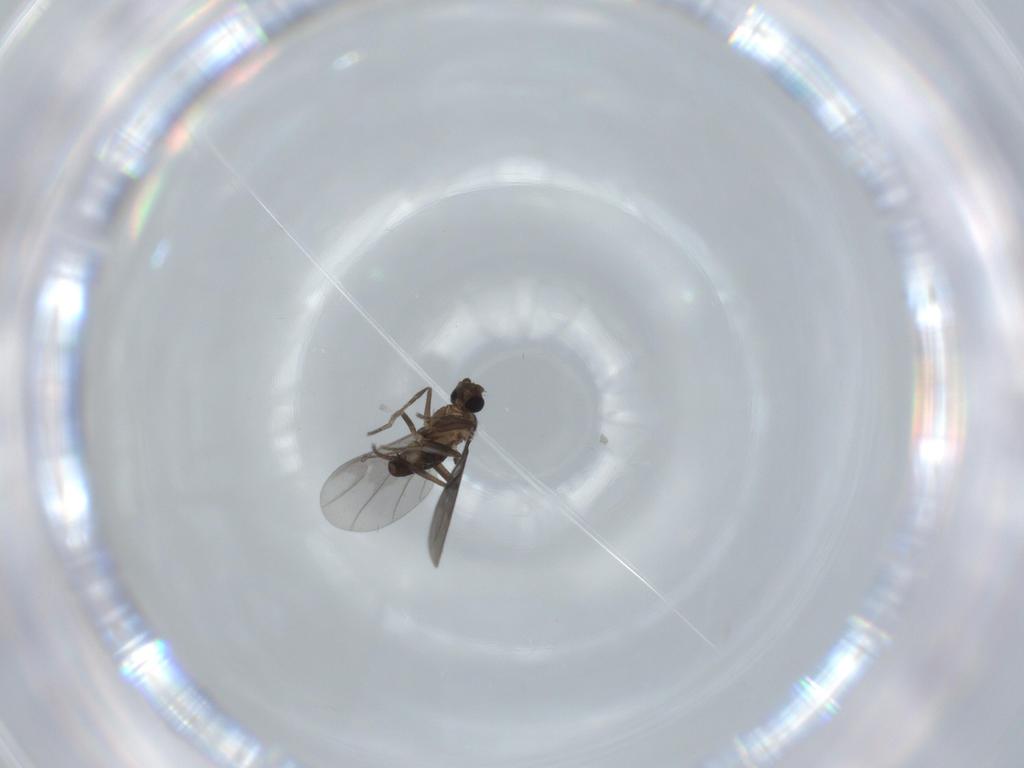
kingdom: Animalia
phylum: Arthropoda
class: Insecta
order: Diptera
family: Phoridae
